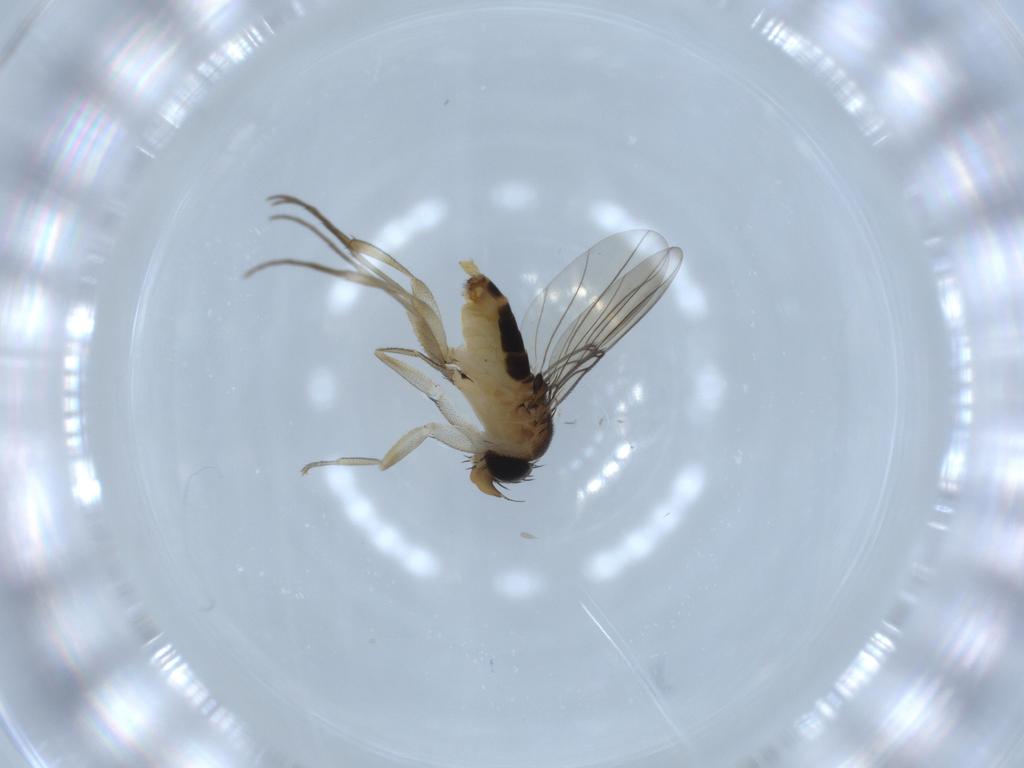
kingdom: Animalia
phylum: Arthropoda
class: Insecta
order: Diptera
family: Phoridae
